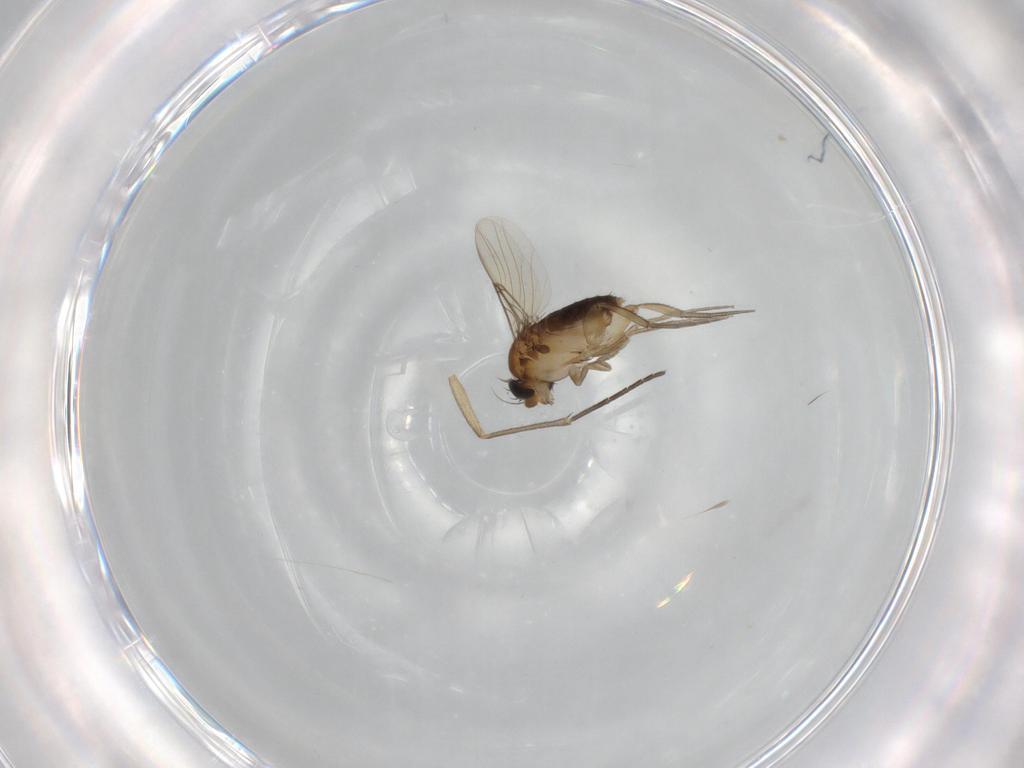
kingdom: Animalia
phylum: Arthropoda
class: Insecta
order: Diptera
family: Phoridae
